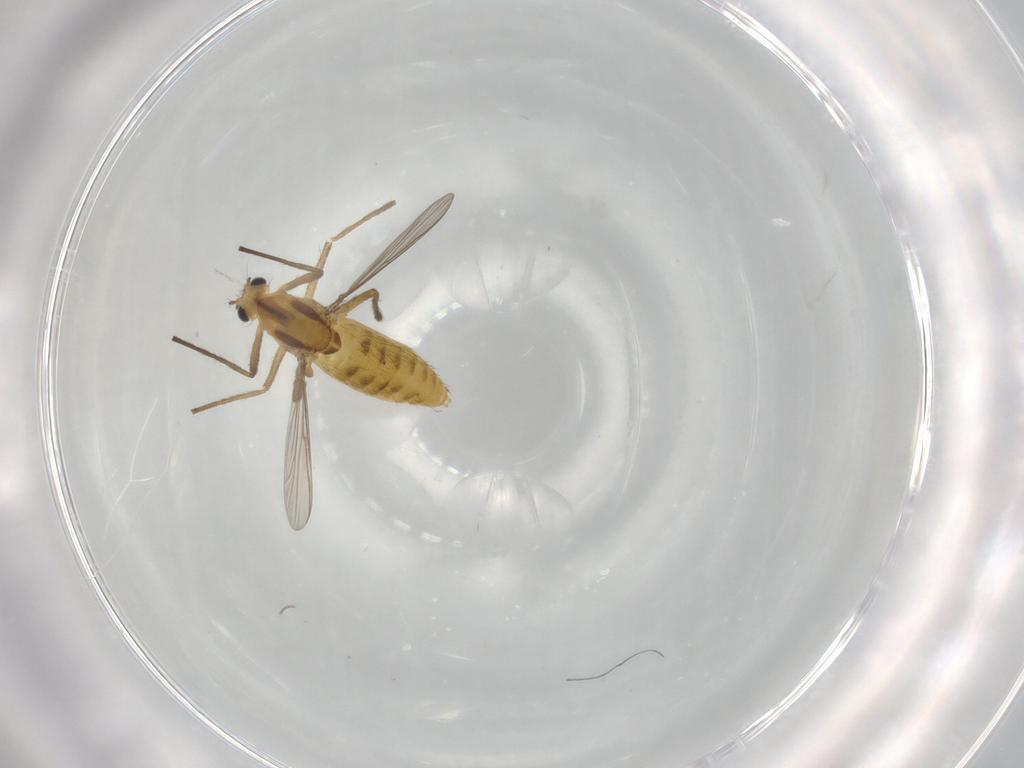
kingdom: Animalia
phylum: Arthropoda
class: Insecta
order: Diptera
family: Chironomidae
